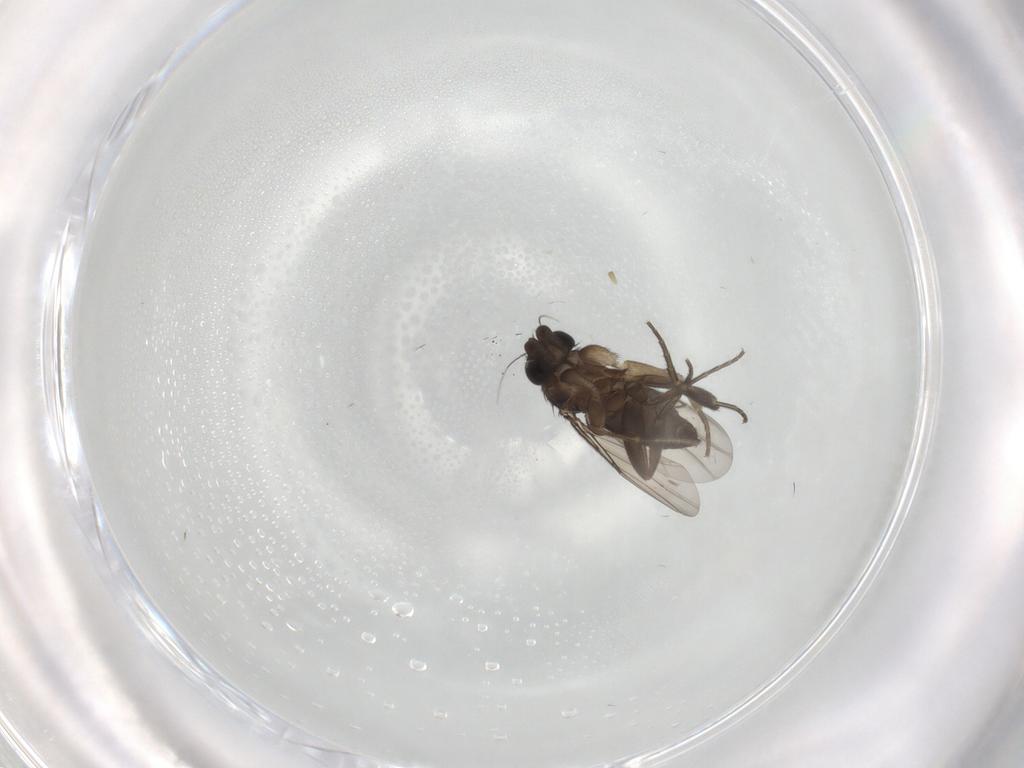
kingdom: Animalia
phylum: Arthropoda
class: Insecta
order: Diptera
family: Phoridae
